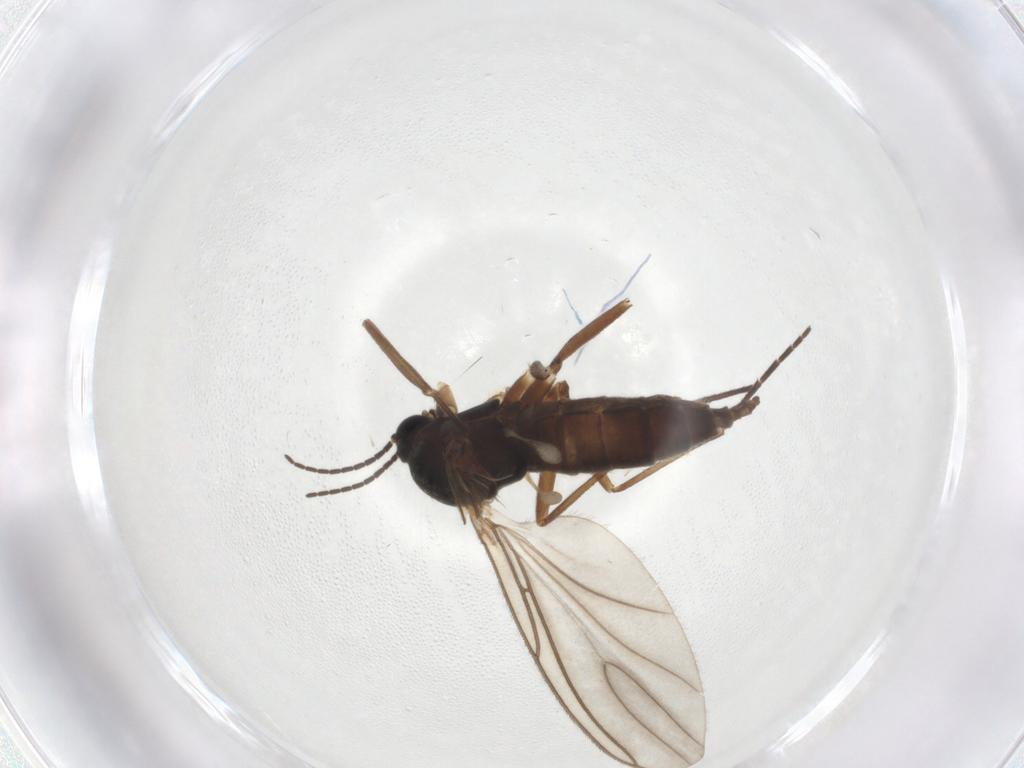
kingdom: Animalia
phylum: Arthropoda
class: Insecta
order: Diptera
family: Sciaridae
